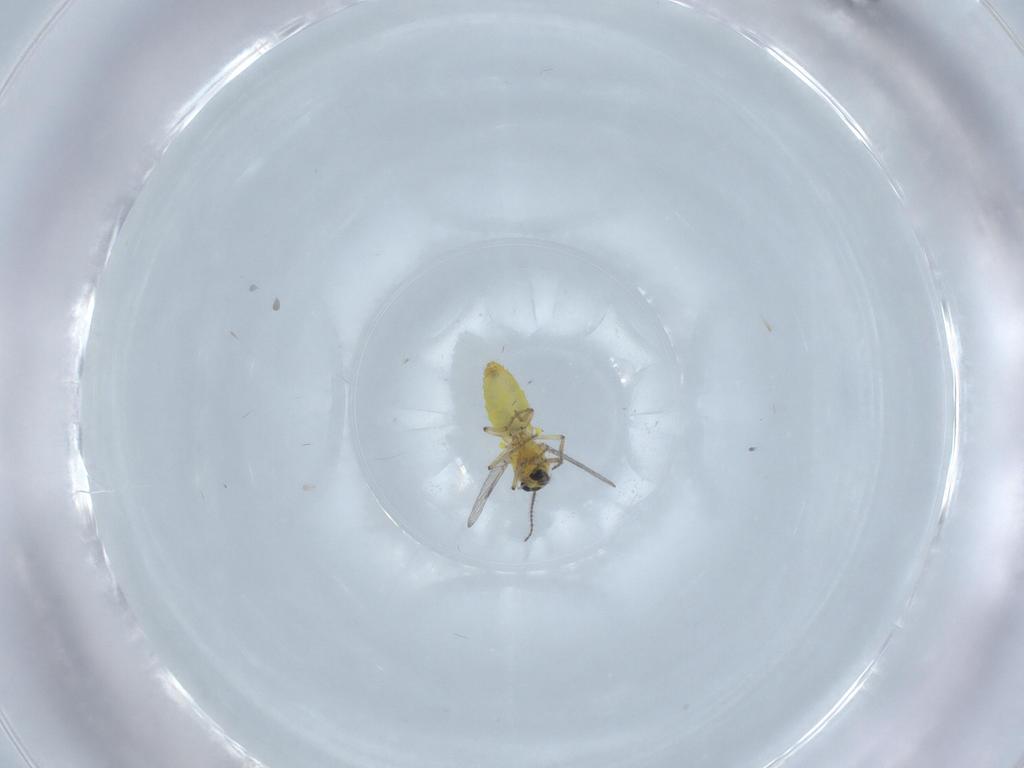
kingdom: Animalia
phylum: Arthropoda
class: Insecta
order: Diptera
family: Ceratopogonidae
